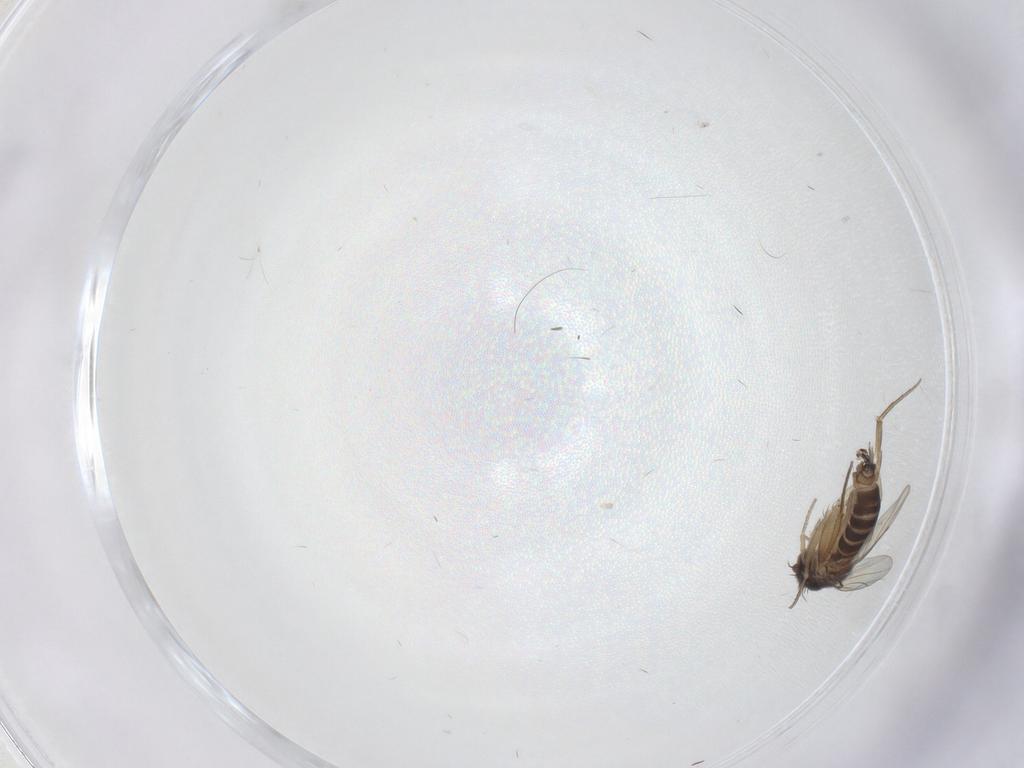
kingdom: Animalia
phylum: Arthropoda
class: Insecta
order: Diptera
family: Phoridae
